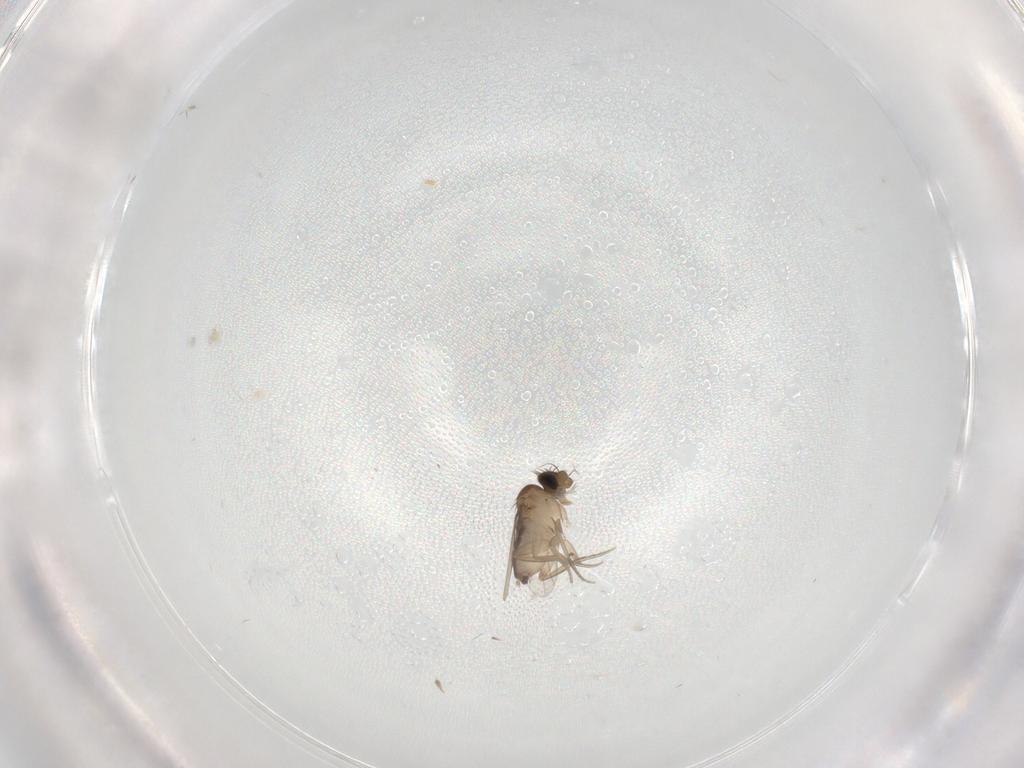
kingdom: Animalia
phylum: Arthropoda
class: Insecta
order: Diptera
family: Phoridae
